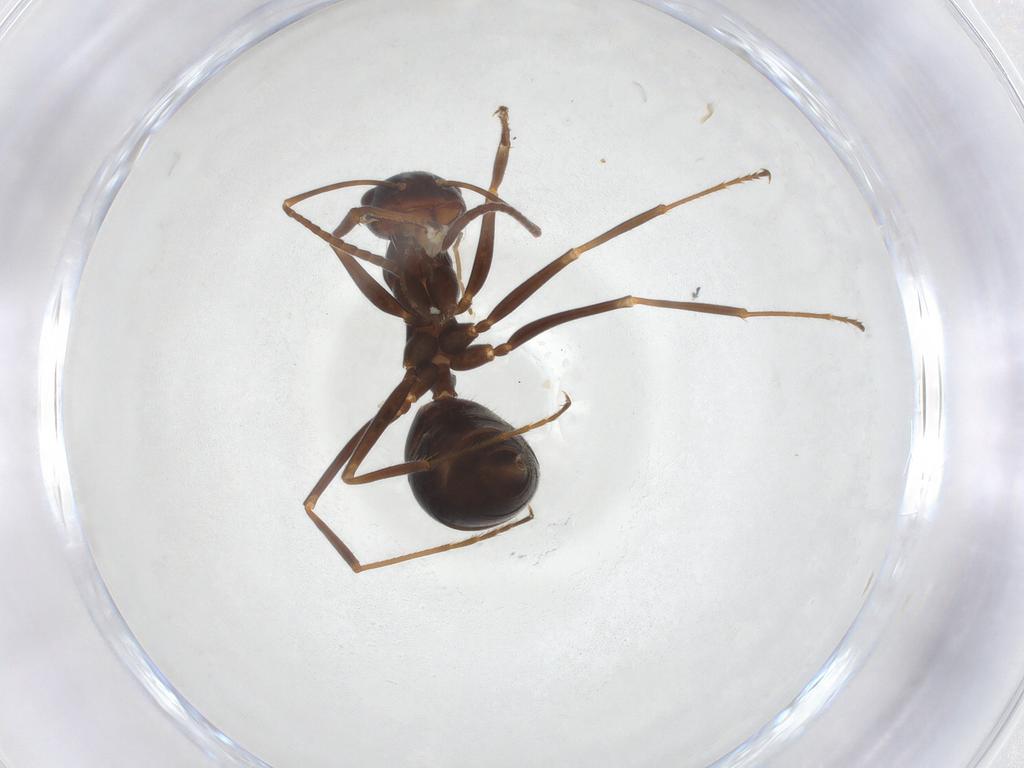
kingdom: Animalia
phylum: Arthropoda
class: Insecta
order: Hymenoptera
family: Formicidae
